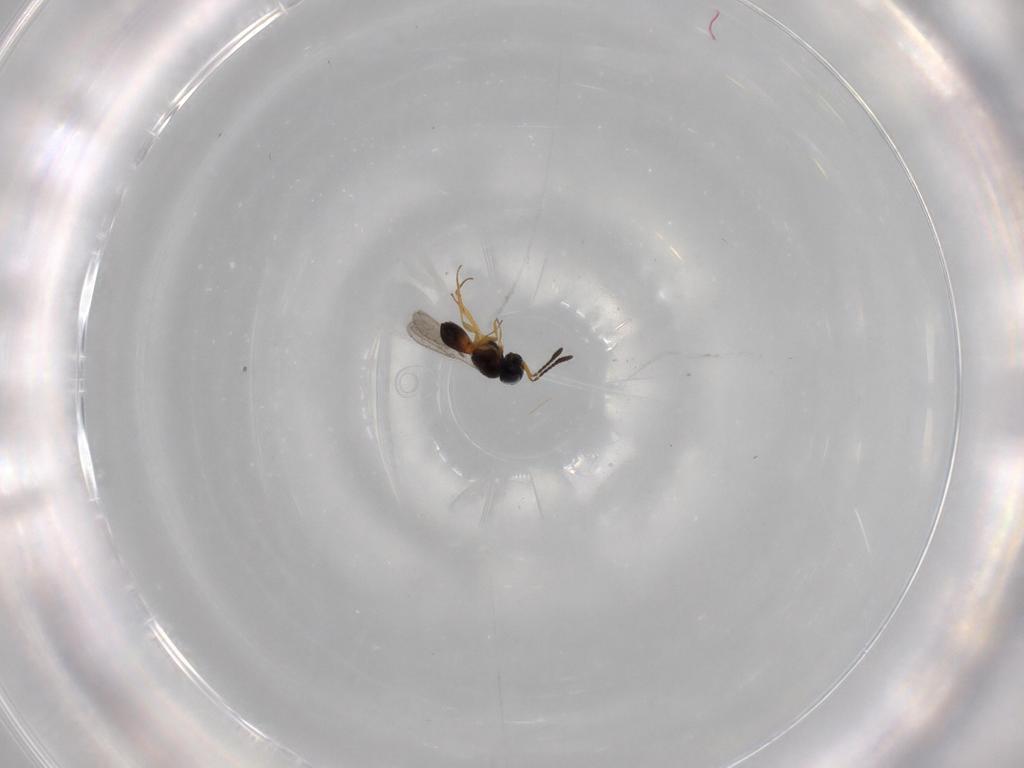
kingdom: Animalia
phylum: Arthropoda
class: Insecta
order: Hymenoptera
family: Scelionidae
